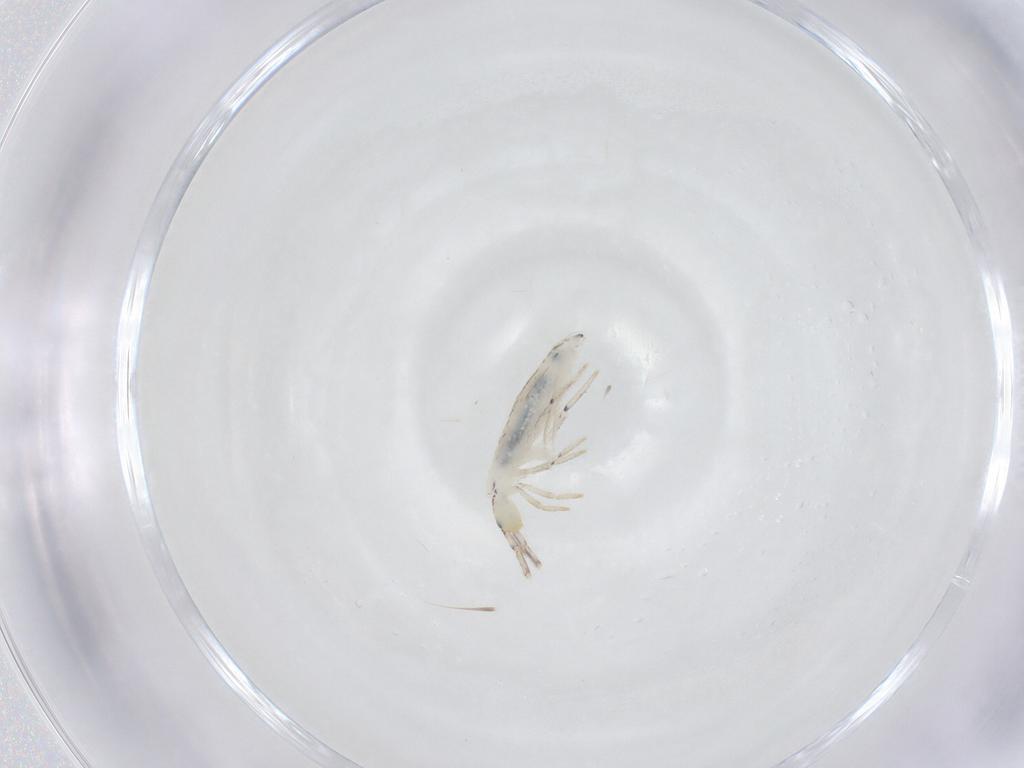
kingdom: Animalia
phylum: Arthropoda
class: Collembola
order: Entomobryomorpha
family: Entomobryidae
